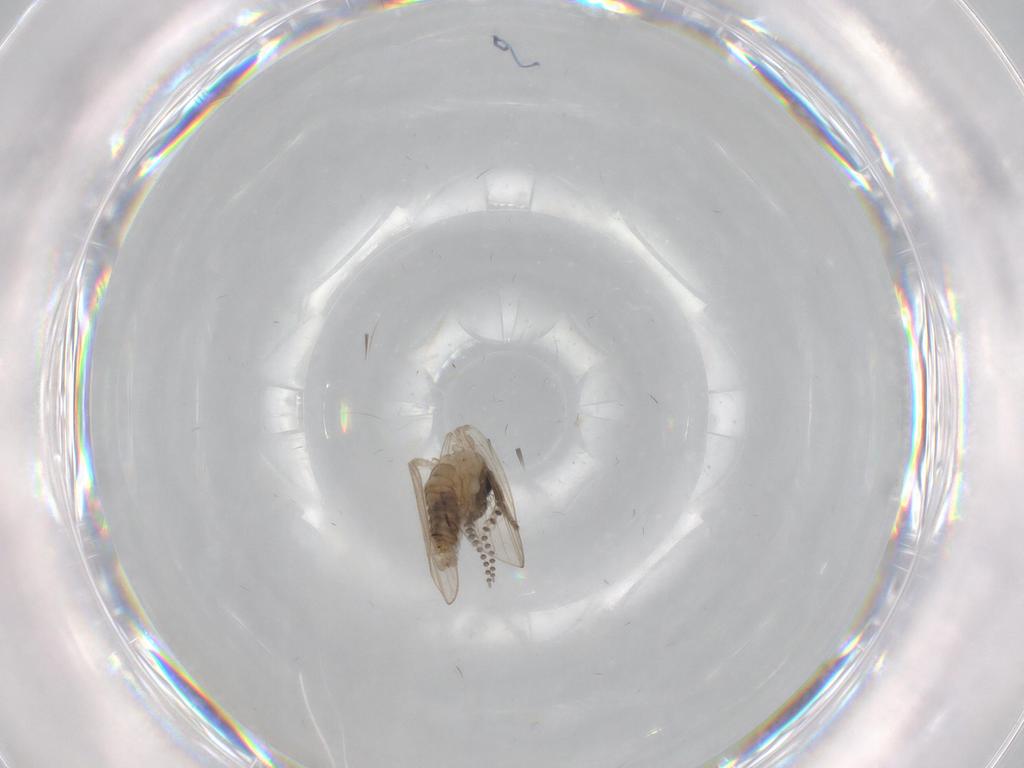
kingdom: Animalia
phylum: Arthropoda
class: Insecta
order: Diptera
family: Psychodidae
